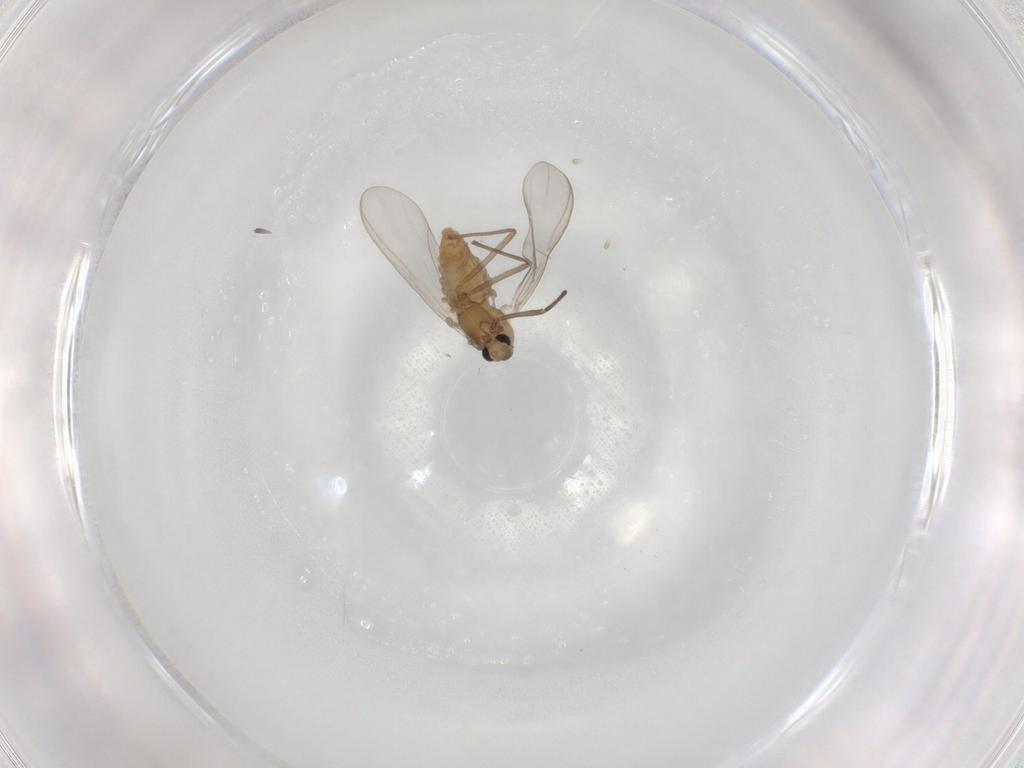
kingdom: Animalia
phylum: Arthropoda
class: Insecta
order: Diptera
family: Chironomidae
